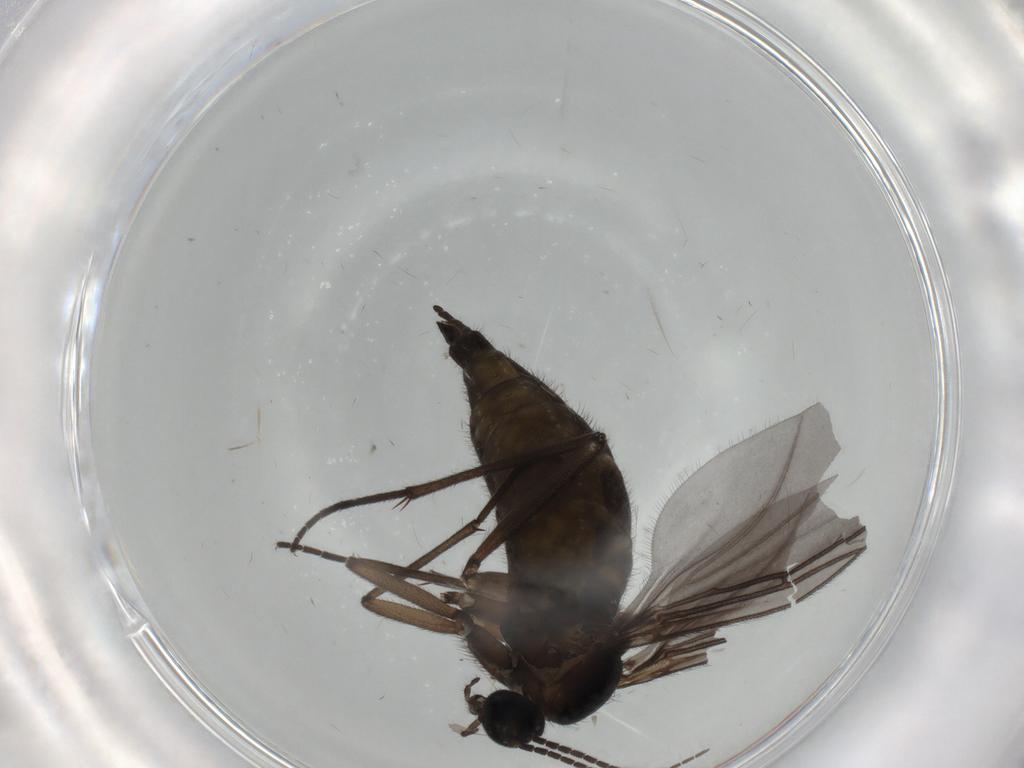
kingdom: Animalia
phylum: Arthropoda
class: Insecta
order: Diptera
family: Sciaridae
